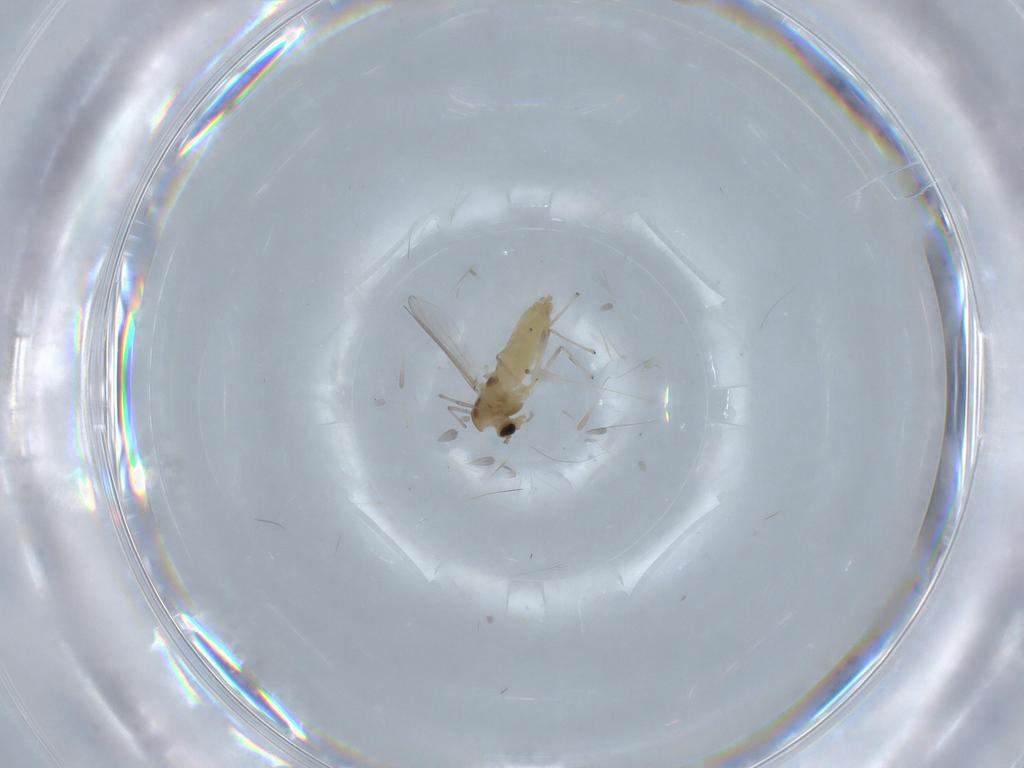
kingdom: Animalia
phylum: Arthropoda
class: Insecta
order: Diptera
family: Chironomidae
